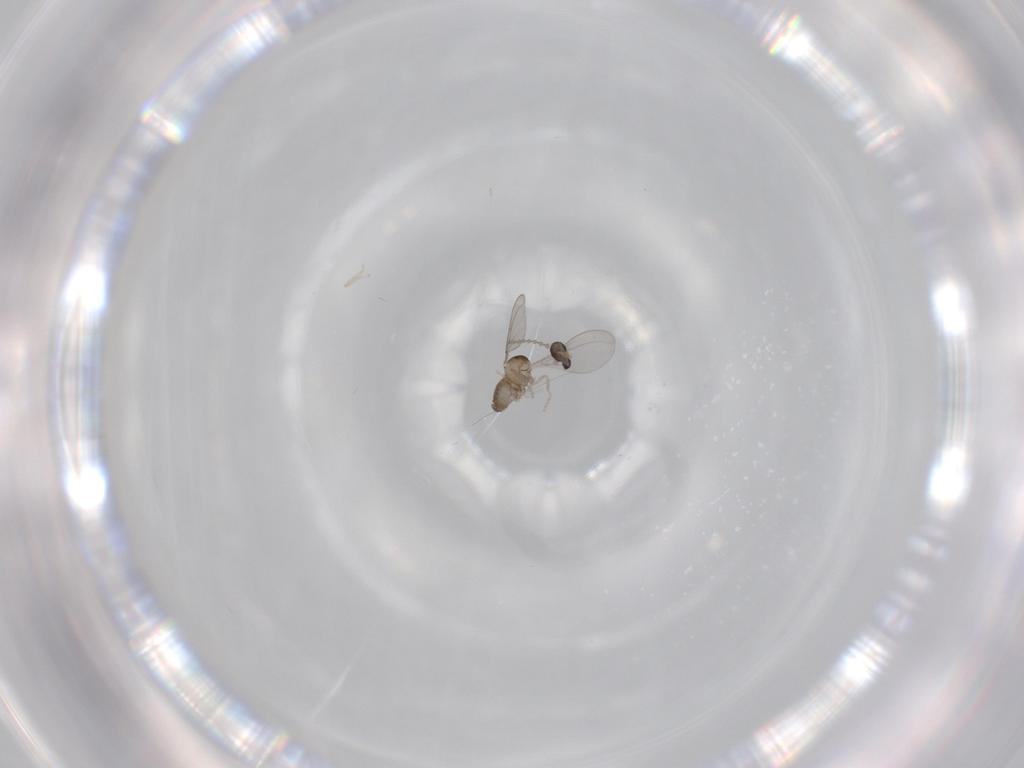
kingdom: Animalia
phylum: Arthropoda
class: Insecta
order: Diptera
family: Cecidomyiidae
